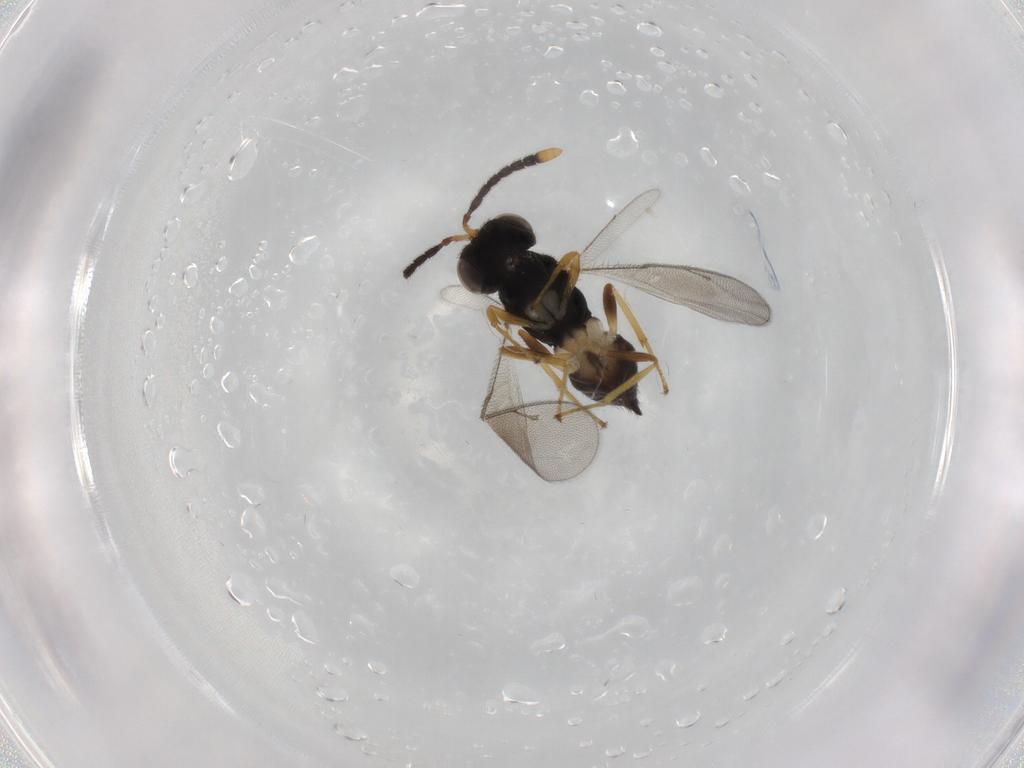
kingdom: Animalia
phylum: Arthropoda
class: Insecta
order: Hymenoptera
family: Pteromalidae
